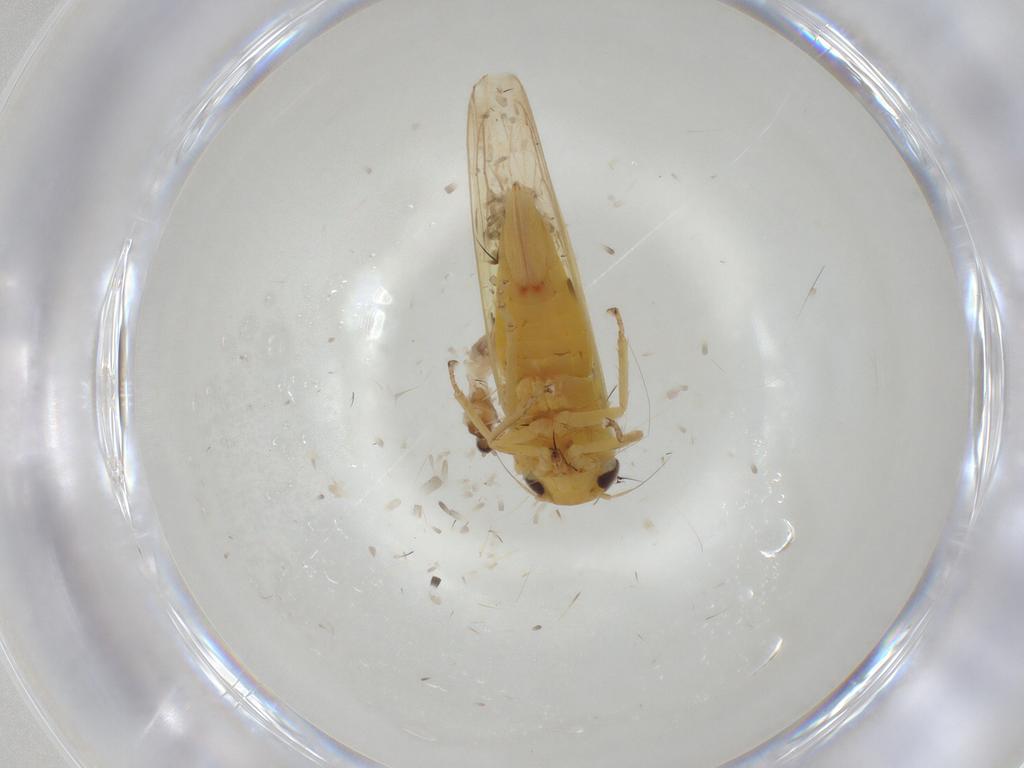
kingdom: Animalia
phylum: Arthropoda
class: Insecta
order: Diptera
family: Cecidomyiidae
